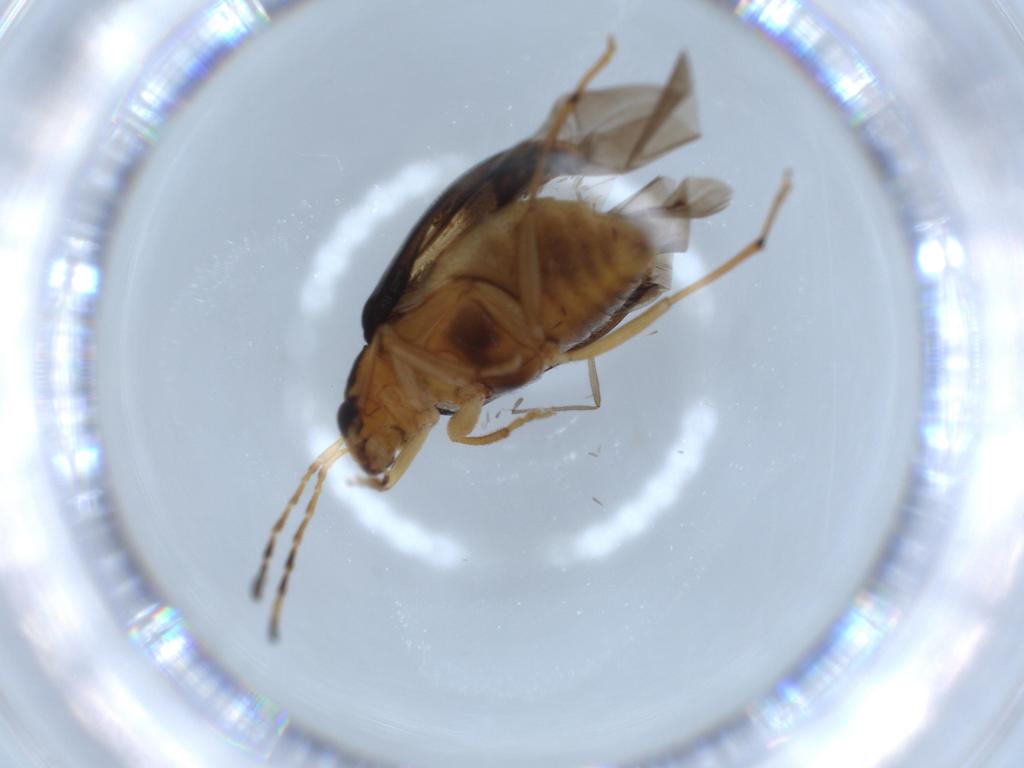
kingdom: Animalia
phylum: Arthropoda
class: Insecta
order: Coleoptera
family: Chrysomelidae
